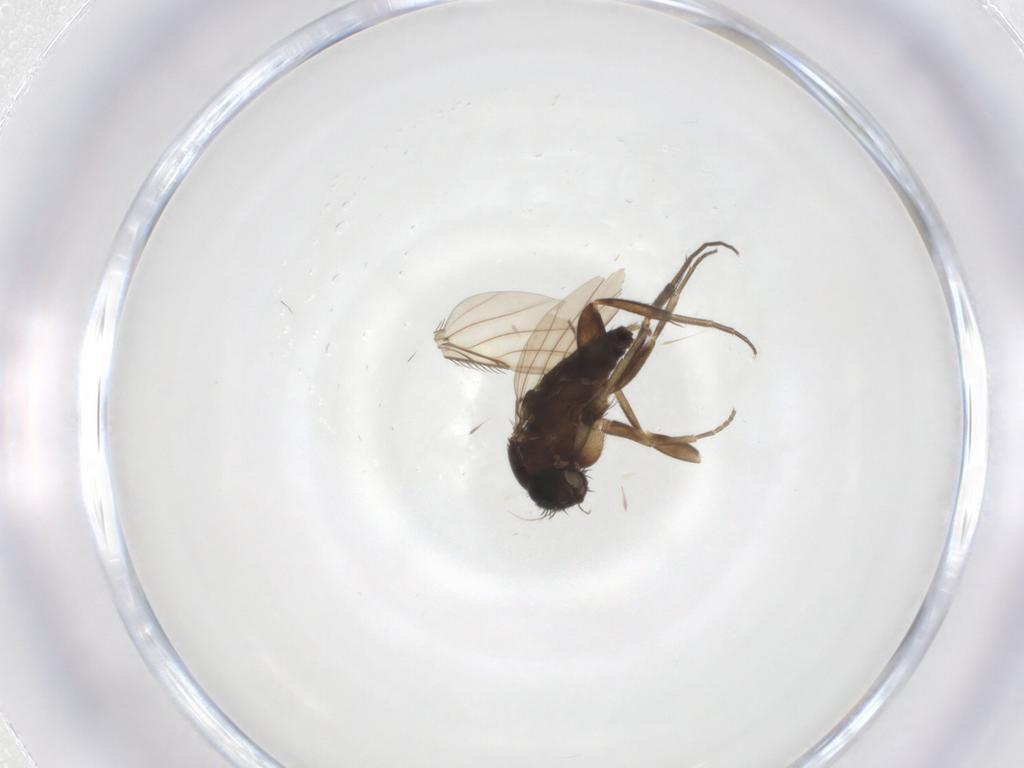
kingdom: Animalia
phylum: Arthropoda
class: Insecta
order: Diptera
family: Phoridae
